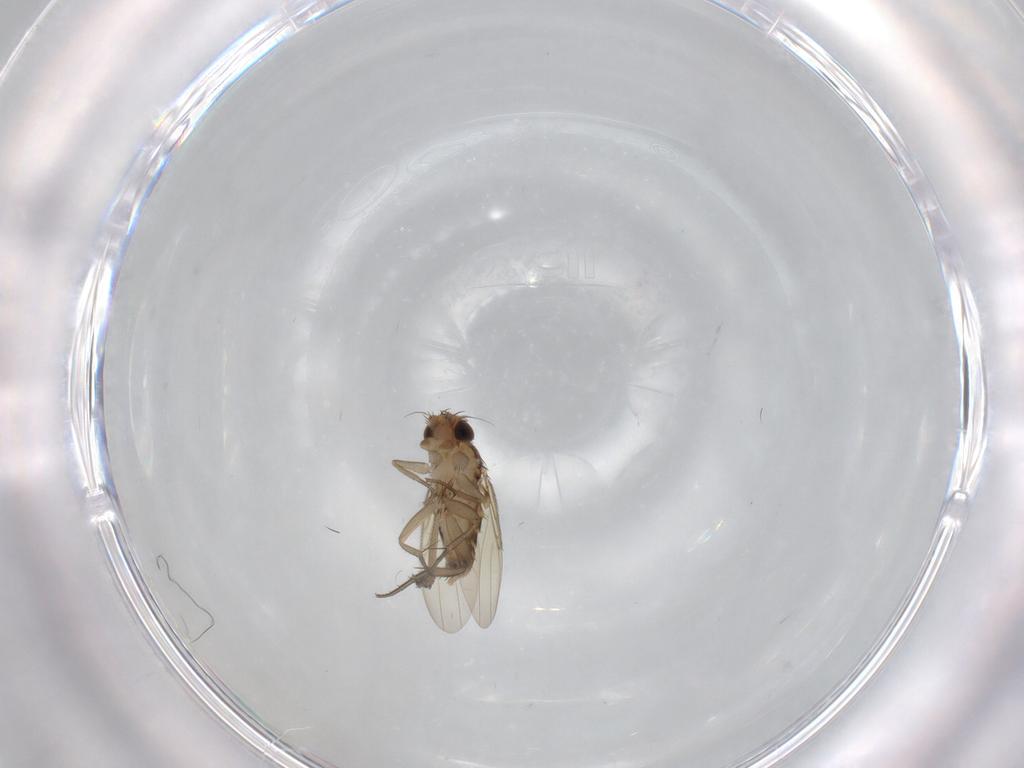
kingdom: Animalia
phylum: Arthropoda
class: Insecta
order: Diptera
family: Phoridae
